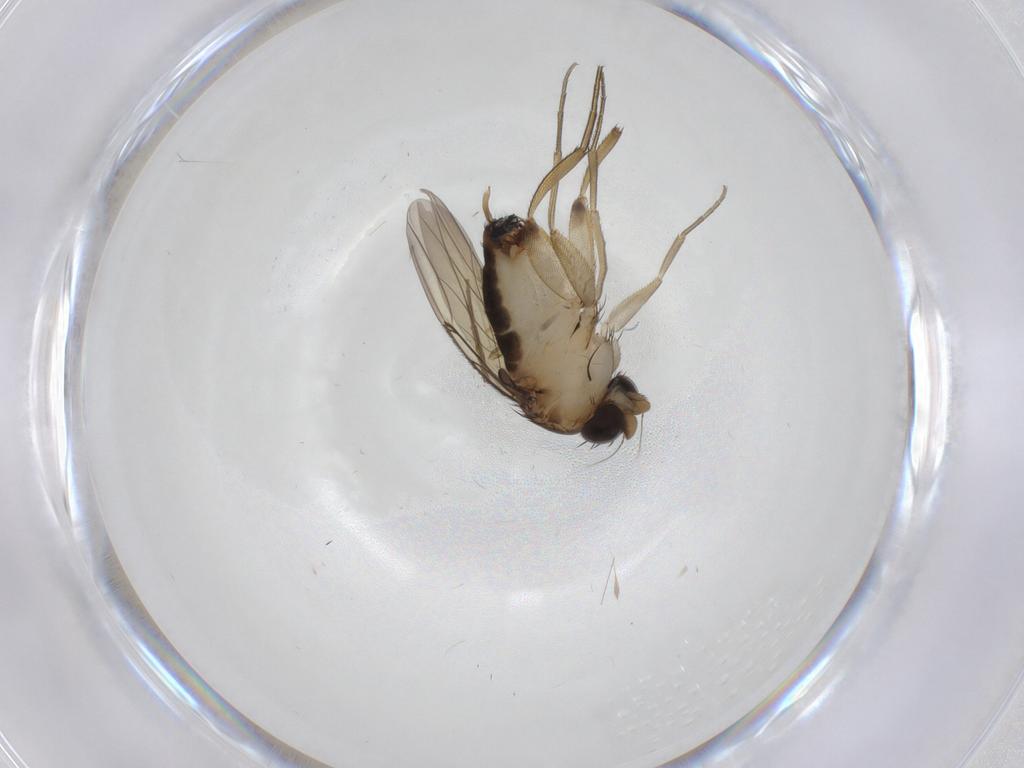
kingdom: Animalia
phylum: Arthropoda
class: Insecta
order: Diptera
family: Phoridae
